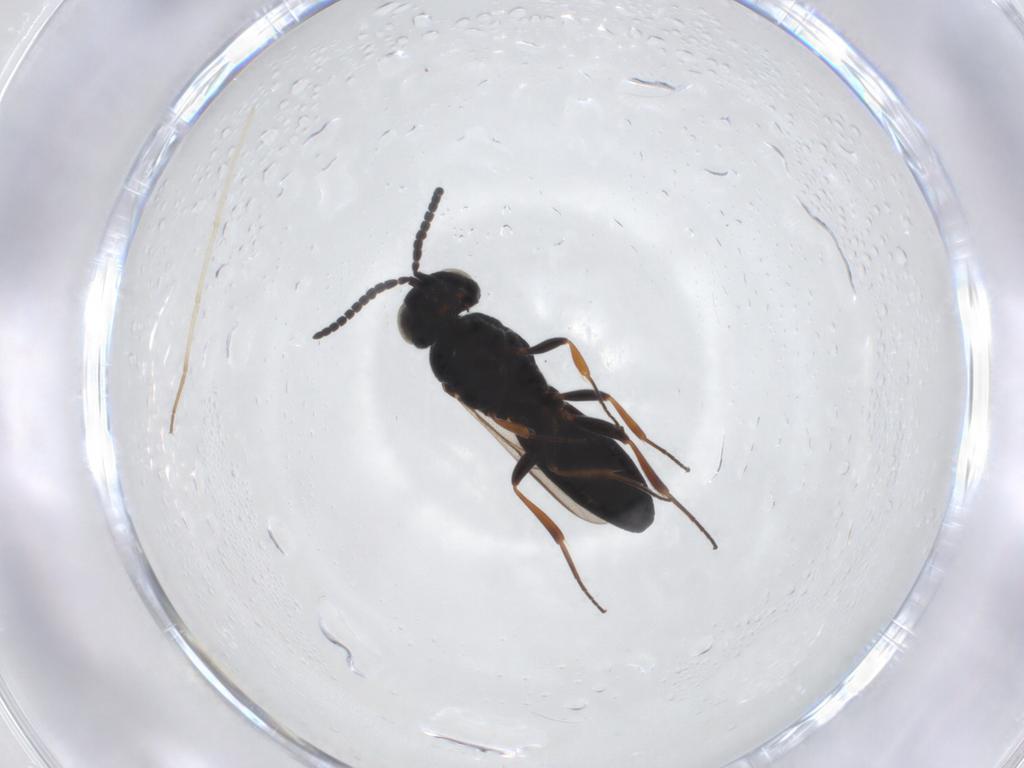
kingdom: Animalia
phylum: Arthropoda
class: Insecta
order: Hymenoptera
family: Scelionidae
